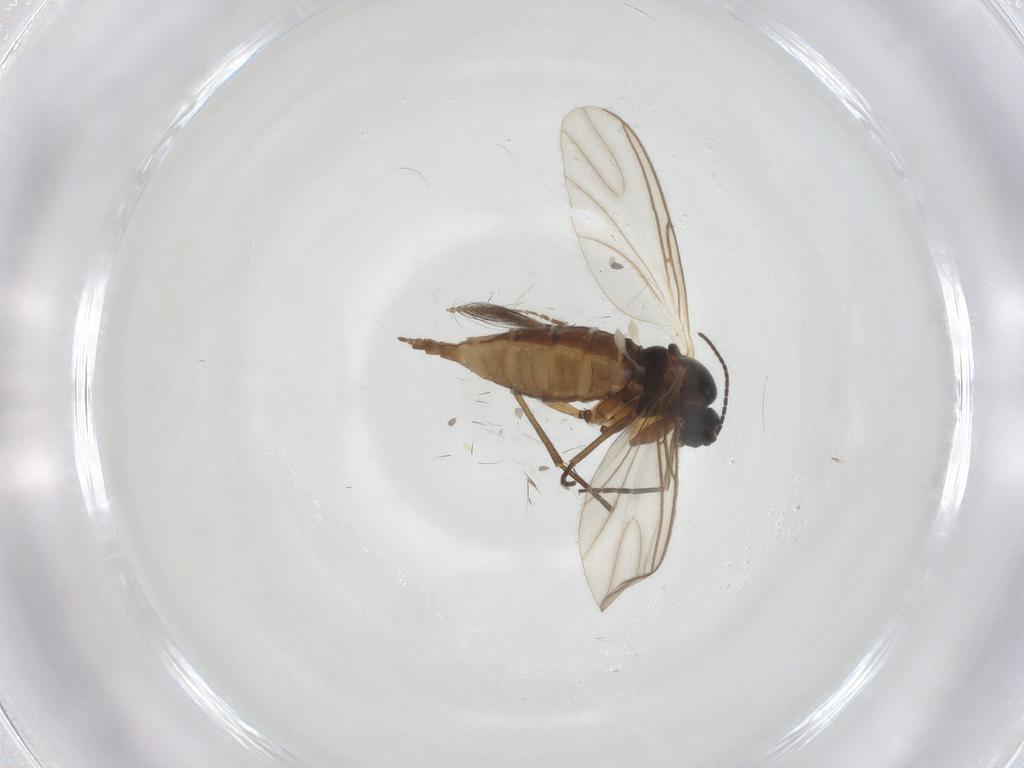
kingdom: Animalia
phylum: Arthropoda
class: Insecta
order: Diptera
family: Sciaridae
